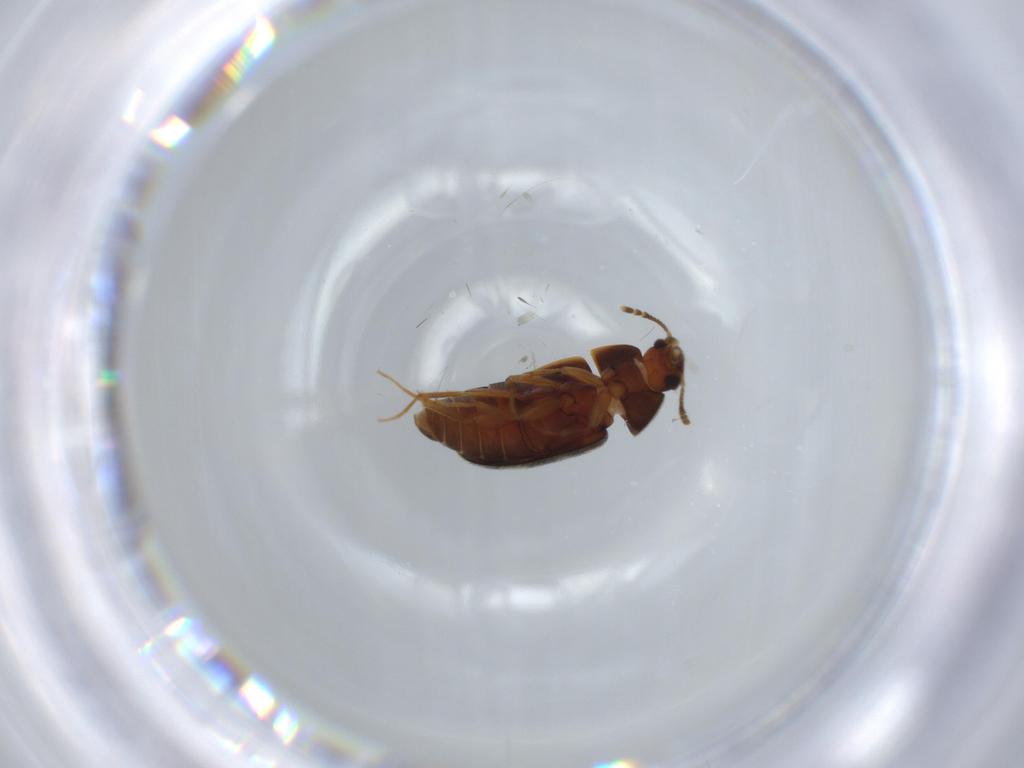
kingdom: Animalia
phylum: Arthropoda
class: Insecta
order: Coleoptera
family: Mycetophagidae
